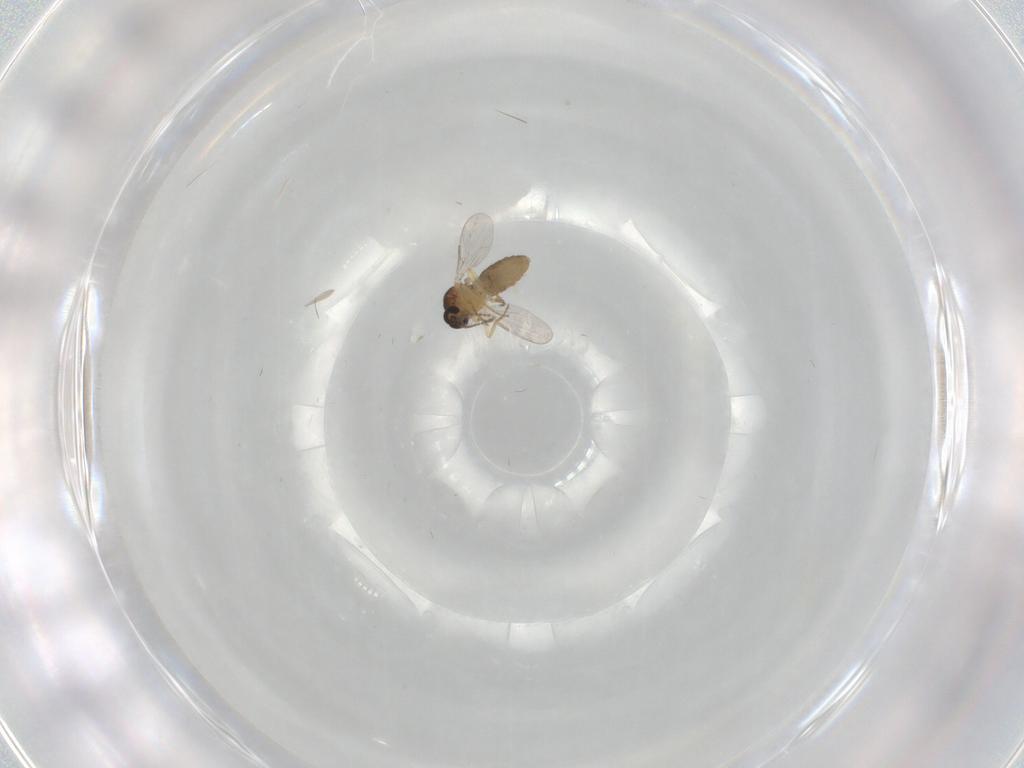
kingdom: Animalia
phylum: Arthropoda
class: Insecta
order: Diptera
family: Ceratopogonidae
